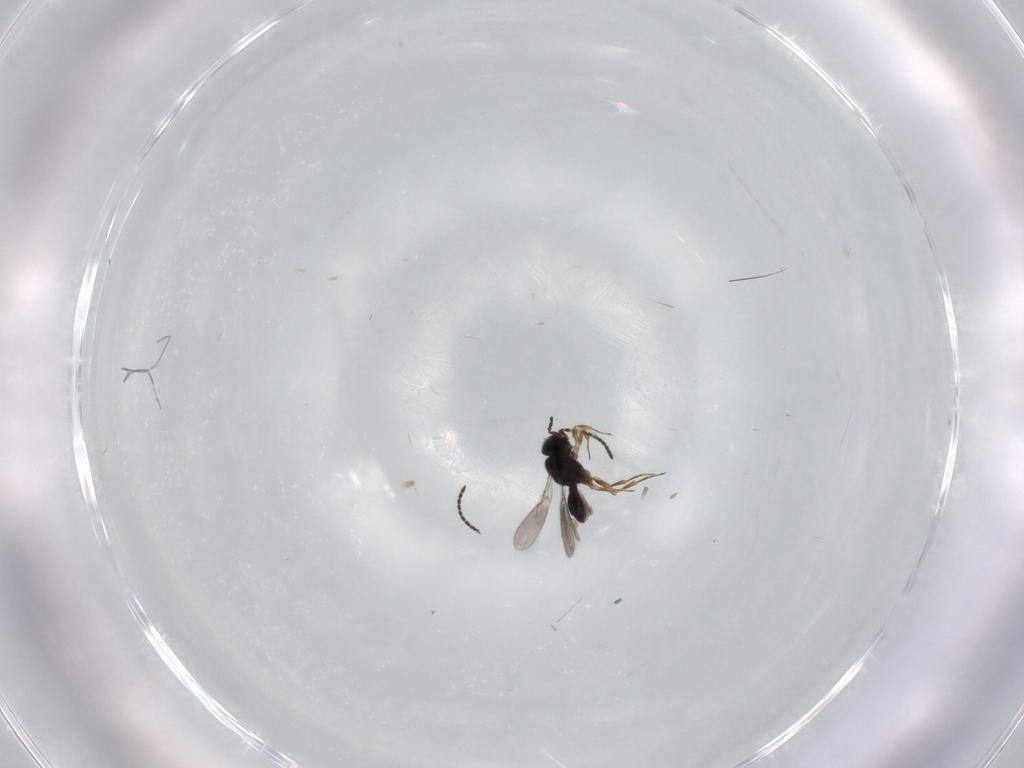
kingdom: Animalia
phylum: Arthropoda
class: Insecta
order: Hymenoptera
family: Scelionidae
